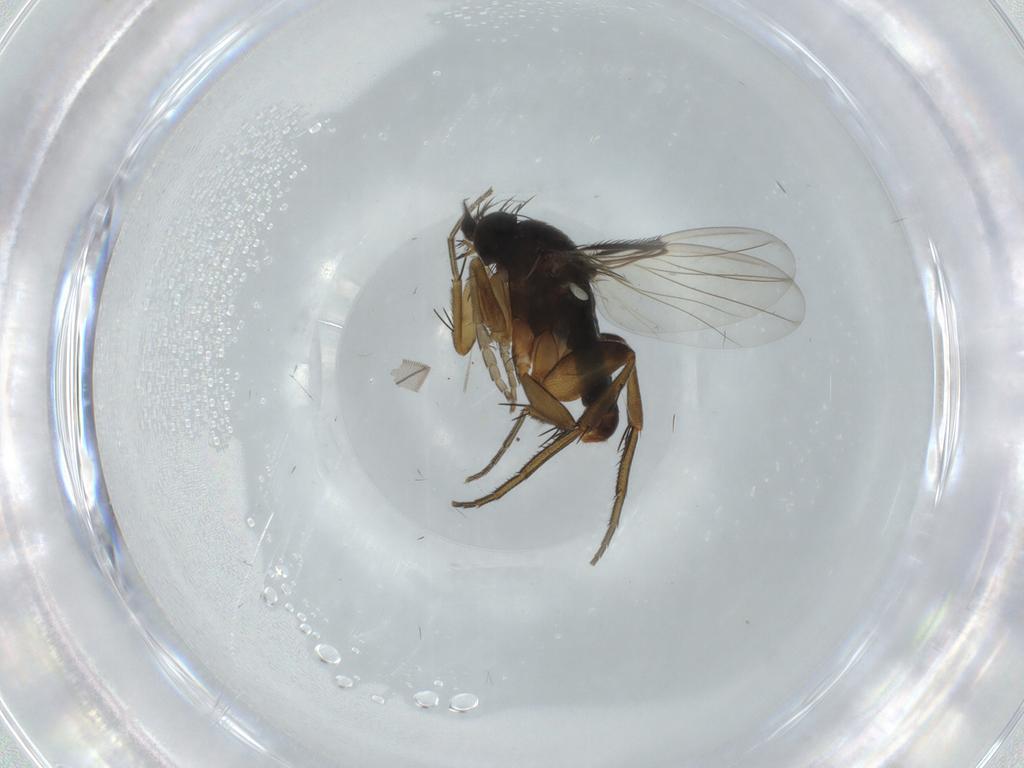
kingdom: Animalia
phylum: Arthropoda
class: Insecta
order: Diptera
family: Phoridae
